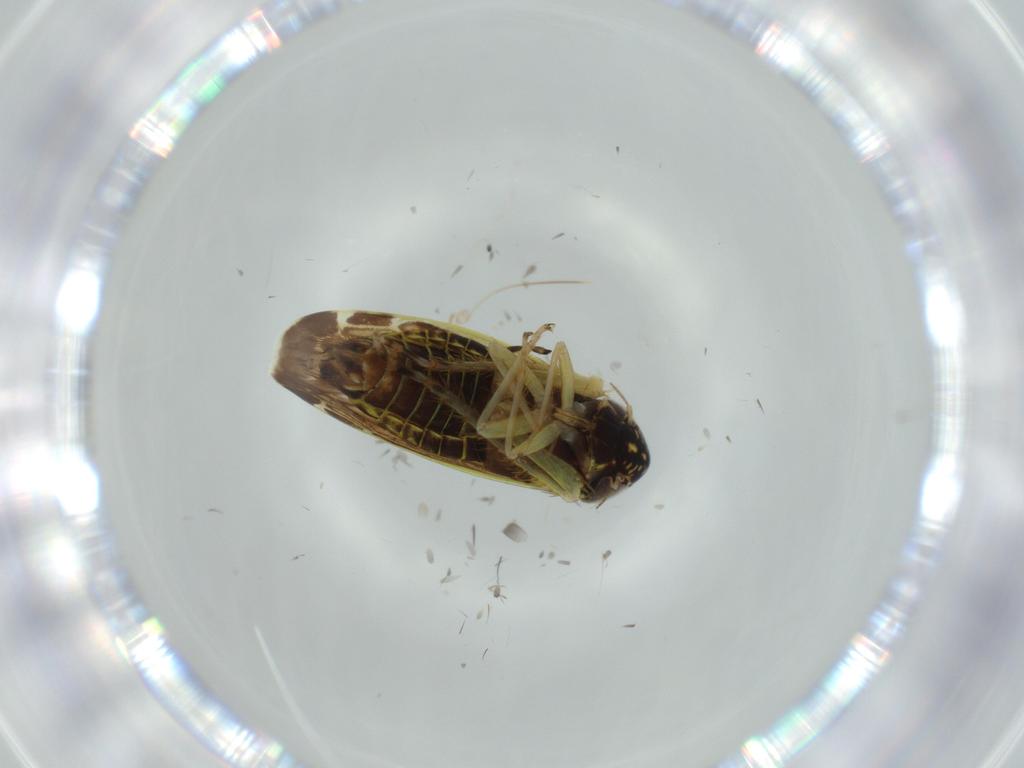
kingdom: Animalia
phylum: Arthropoda
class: Insecta
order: Hemiptera
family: Cicadellidae
